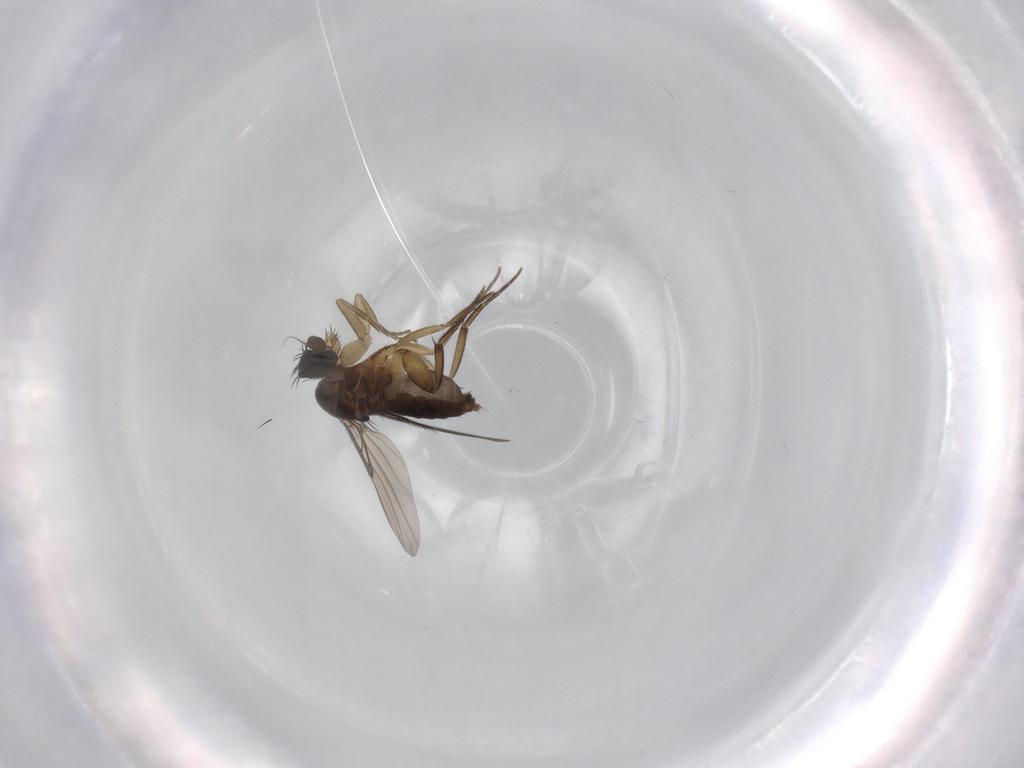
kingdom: Animalia
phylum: Arthropoda
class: Insecta
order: Diptera
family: Phoridae
